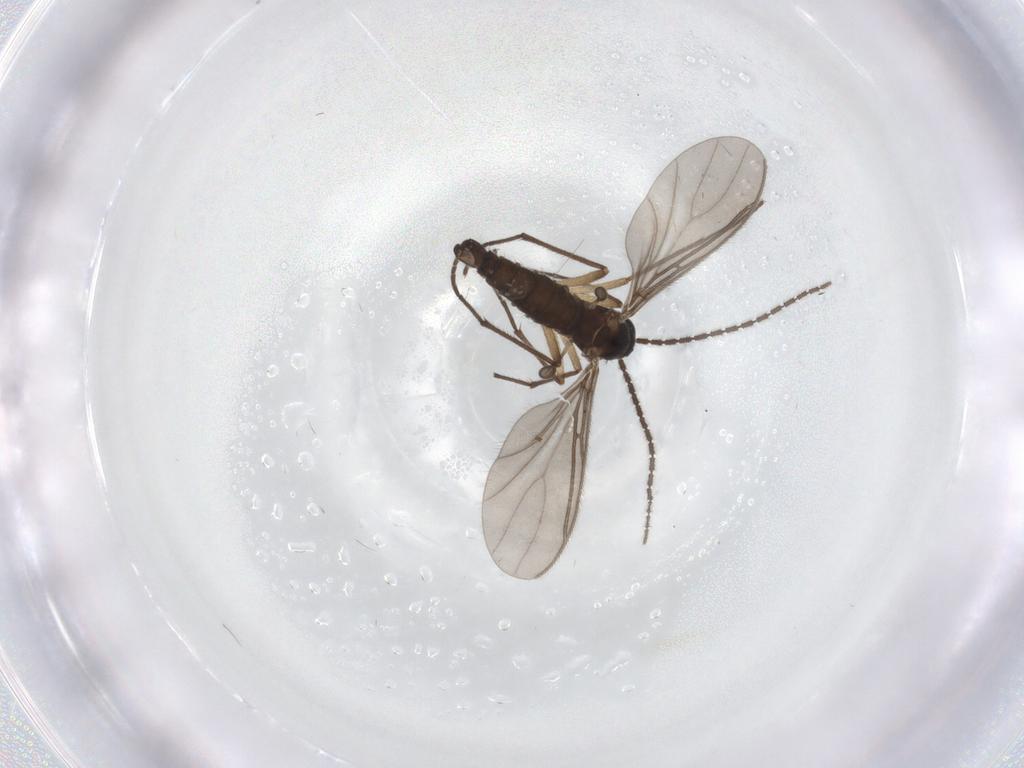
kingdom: Animalia
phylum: Arthropoda
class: Insecta
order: Diptera
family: Sciaridae
